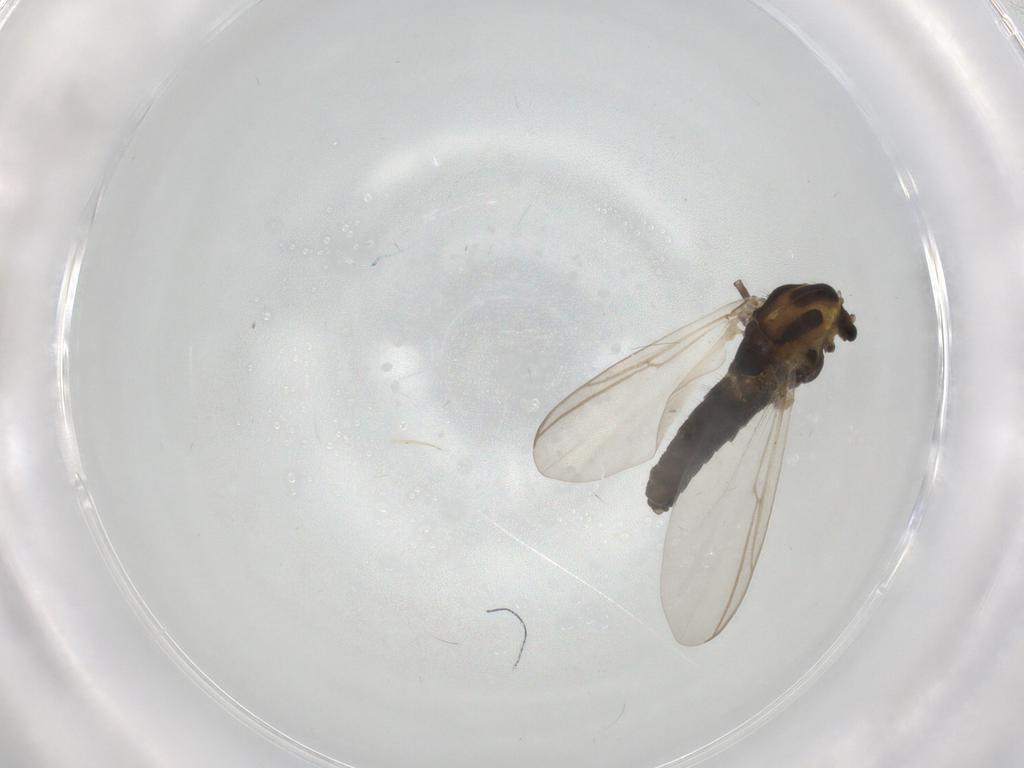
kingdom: Animalia
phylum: Arthropoda
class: Insecta
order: Diptera
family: Chironomidae
